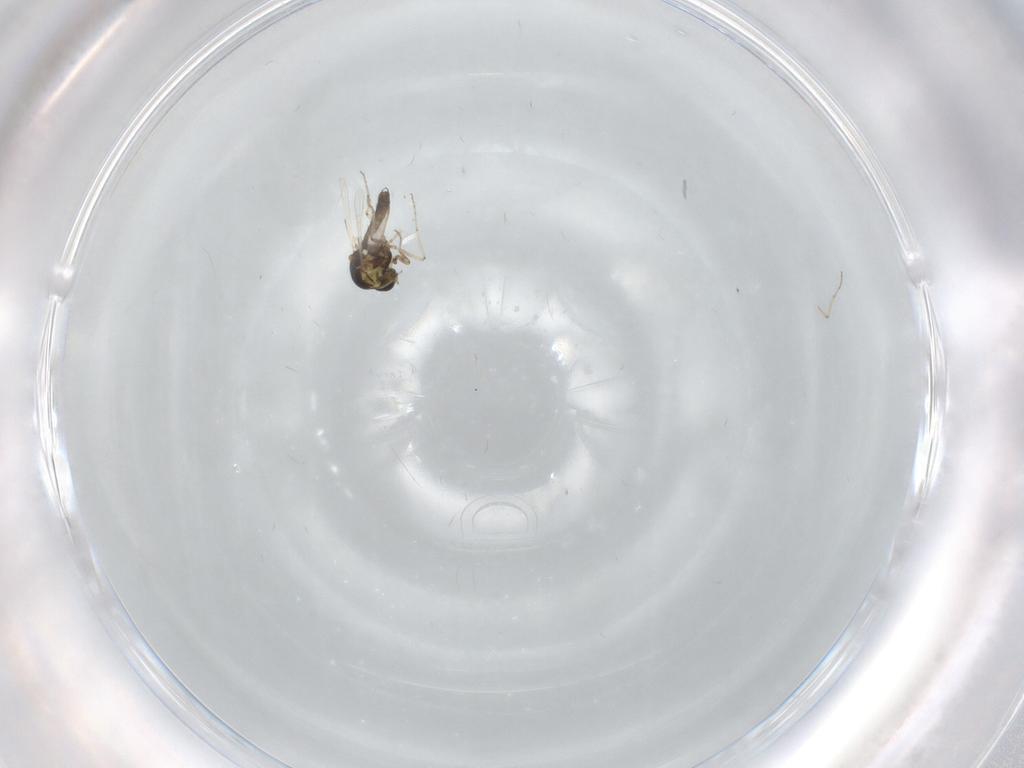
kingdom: Animalia
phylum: Arthropoda
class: Insecta
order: Diptera
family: Ceratopogonidae
